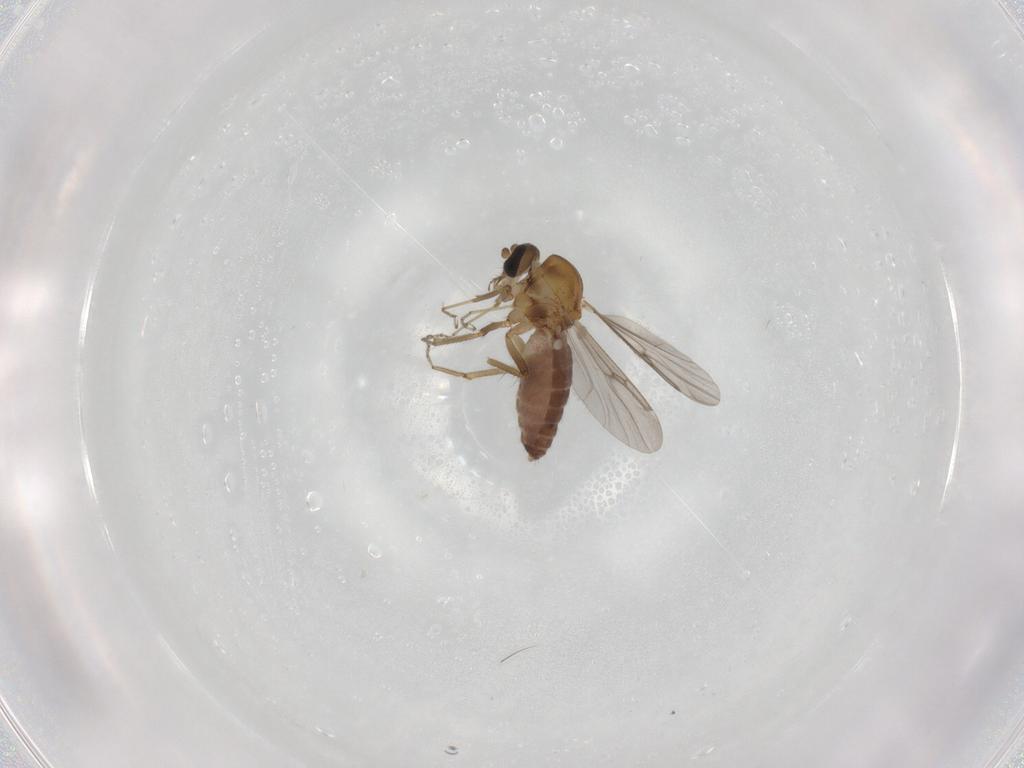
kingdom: Animalia
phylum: Arthropoda
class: Insecta
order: Diptera
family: Ceratopogonidae
